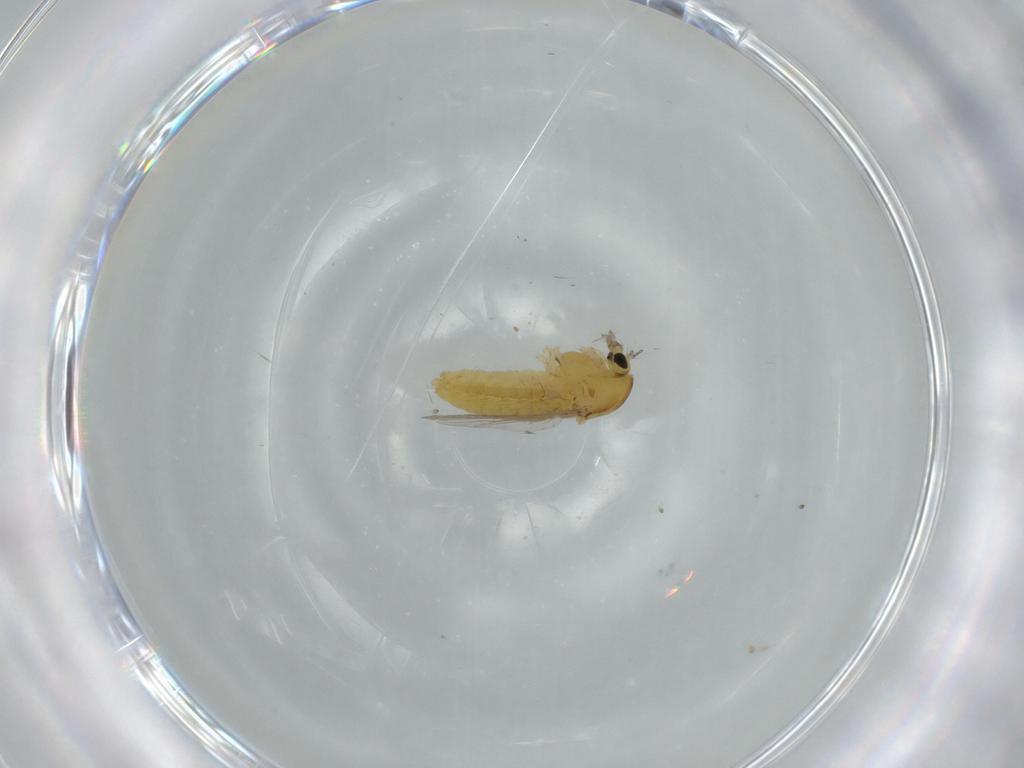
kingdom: Animalia
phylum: Arthropoda
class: Insecta
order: Diptera
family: Chironomidae
